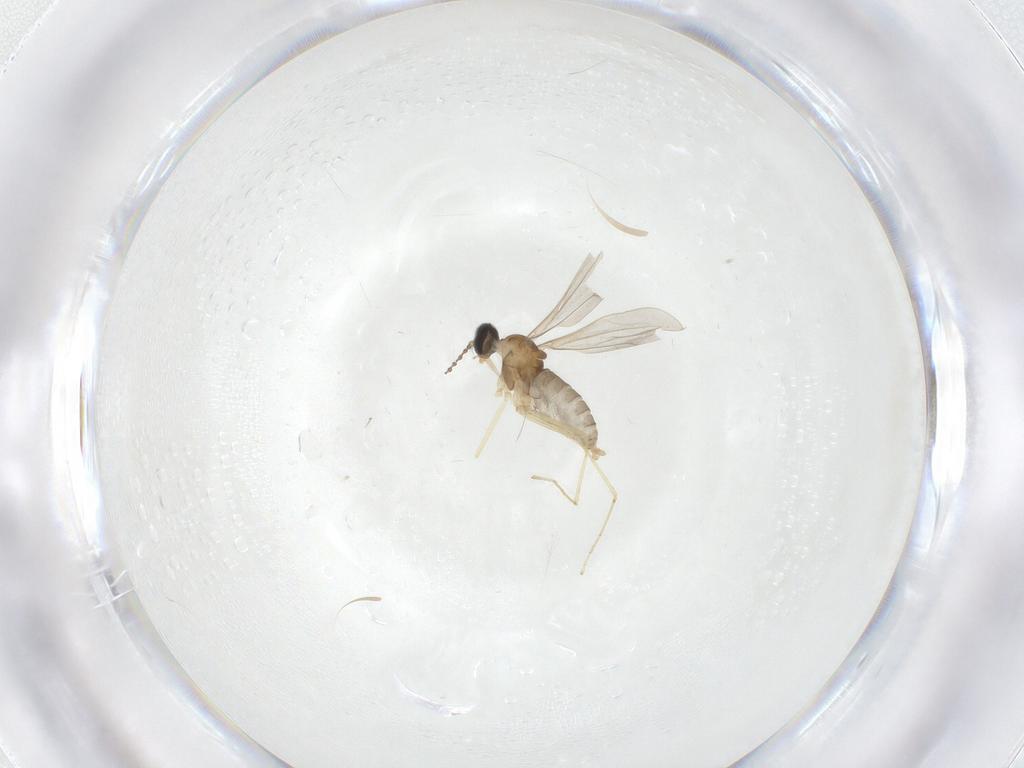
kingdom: Animalia
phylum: Arthropoda
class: Insecta
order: Diptera
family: Cecidomyiidae
